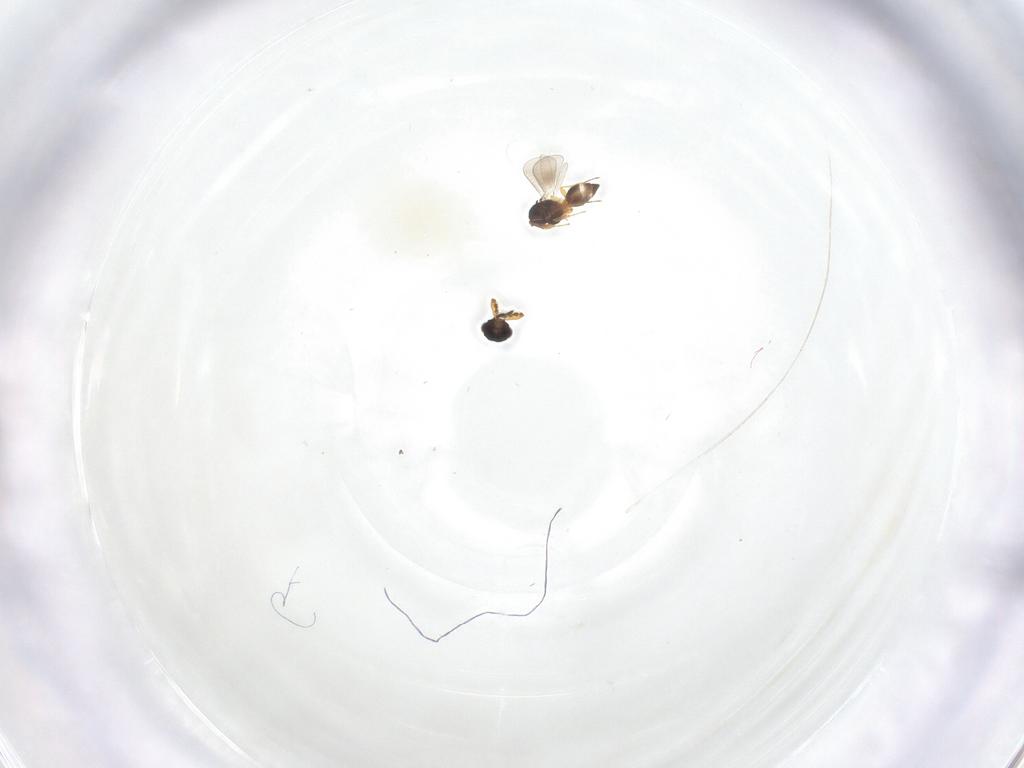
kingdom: Animalia
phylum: Arthropoda
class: Insecta
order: Hymenoptera
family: Platygastridae
